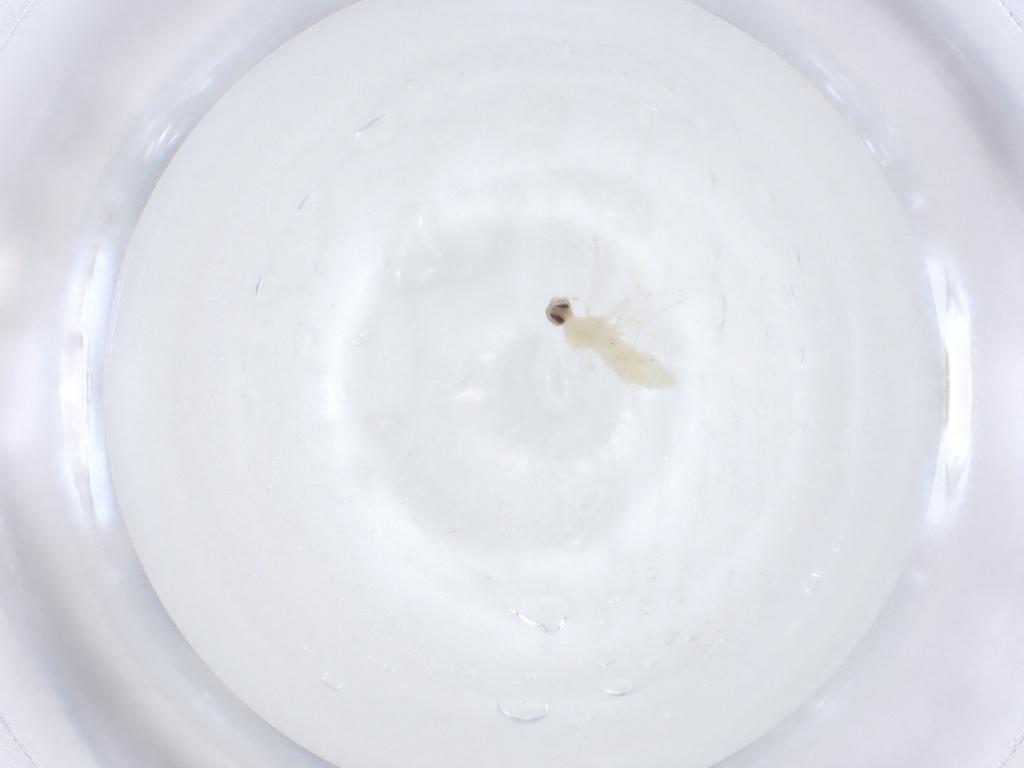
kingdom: Animalia
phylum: Arthropoda
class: Insecta
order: Diptera
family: Cecidomyiidae
